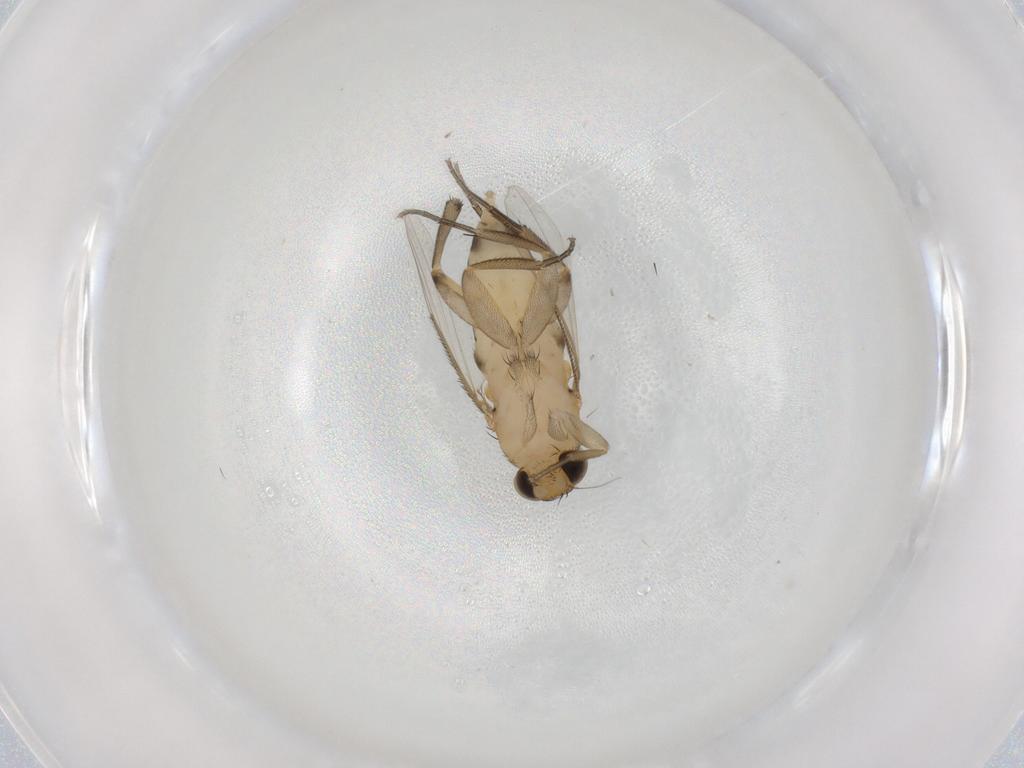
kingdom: Animalia
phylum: Arthropoda
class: Insecta
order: Diptera
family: Phoridae
